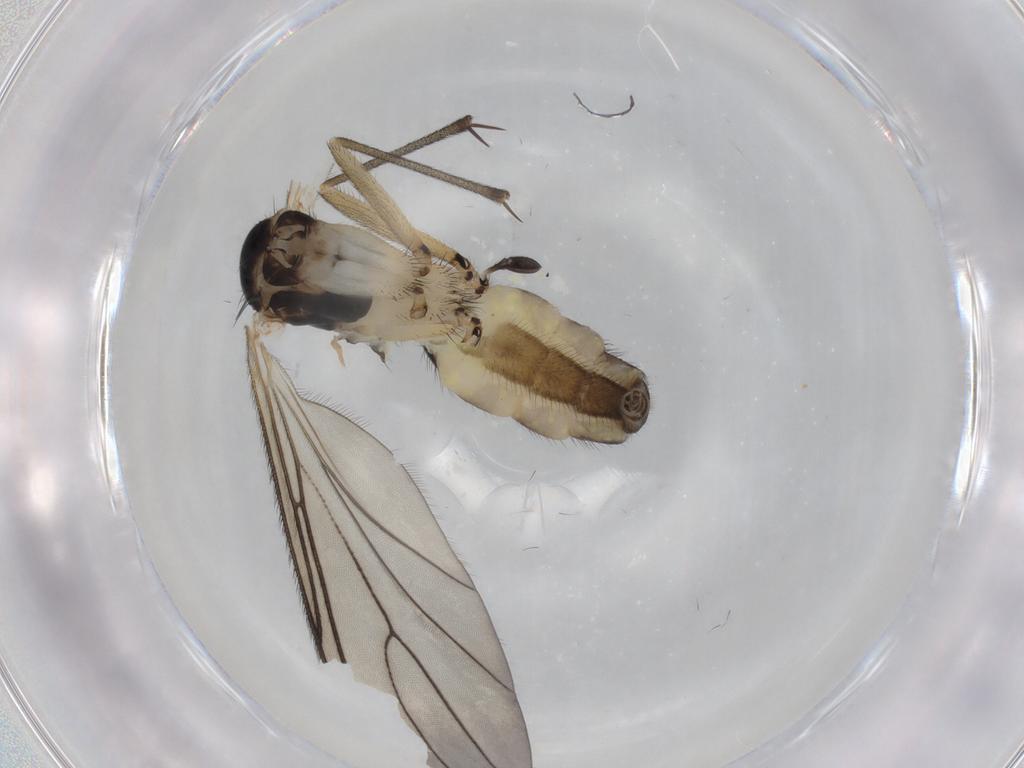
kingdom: Animalia
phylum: Arthropoda
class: Insecta
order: Diptera
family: Sciaridae
